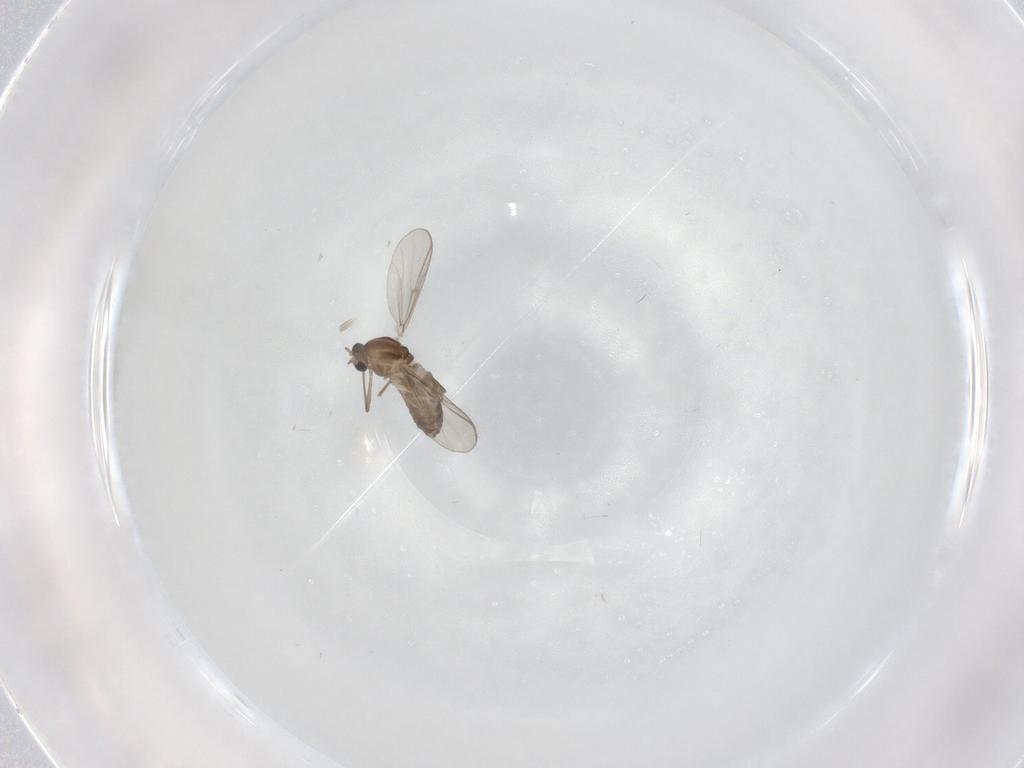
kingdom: Animalia
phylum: Arthropoda
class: Insecta
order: Diptera
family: Chironomidae
